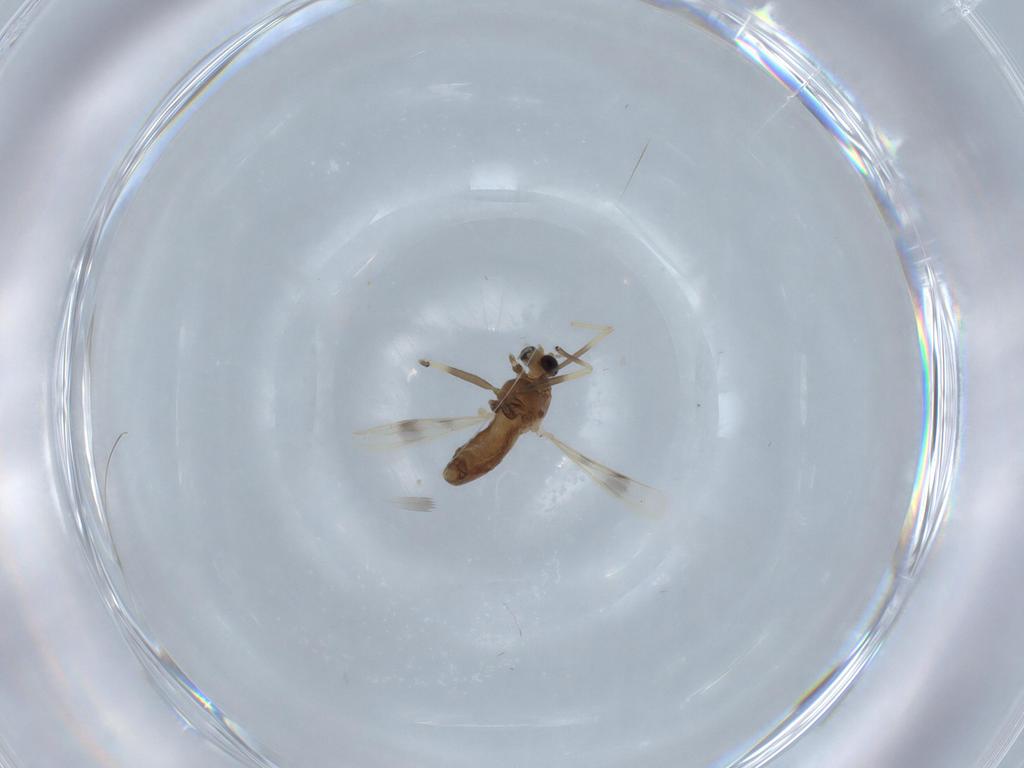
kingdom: Animalia
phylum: Arthropoda
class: Insecta
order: Diptera
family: Chironomidae
